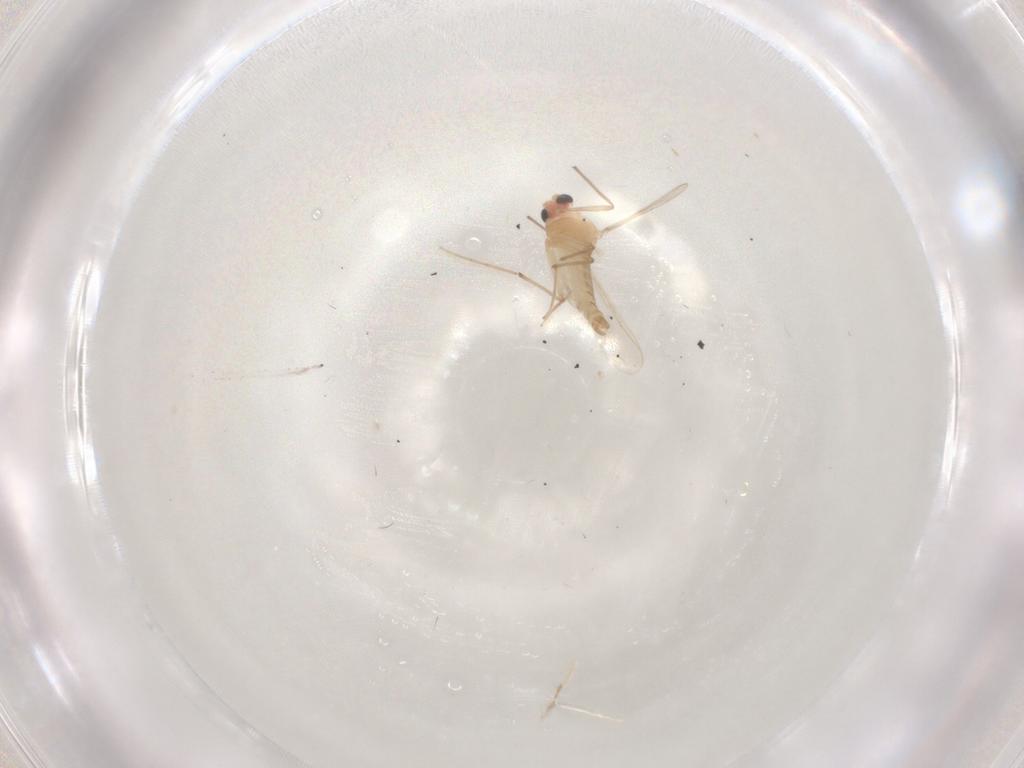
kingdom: Animalia
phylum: Arthropoda
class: Insecta
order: Diptera
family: Chironomidae
